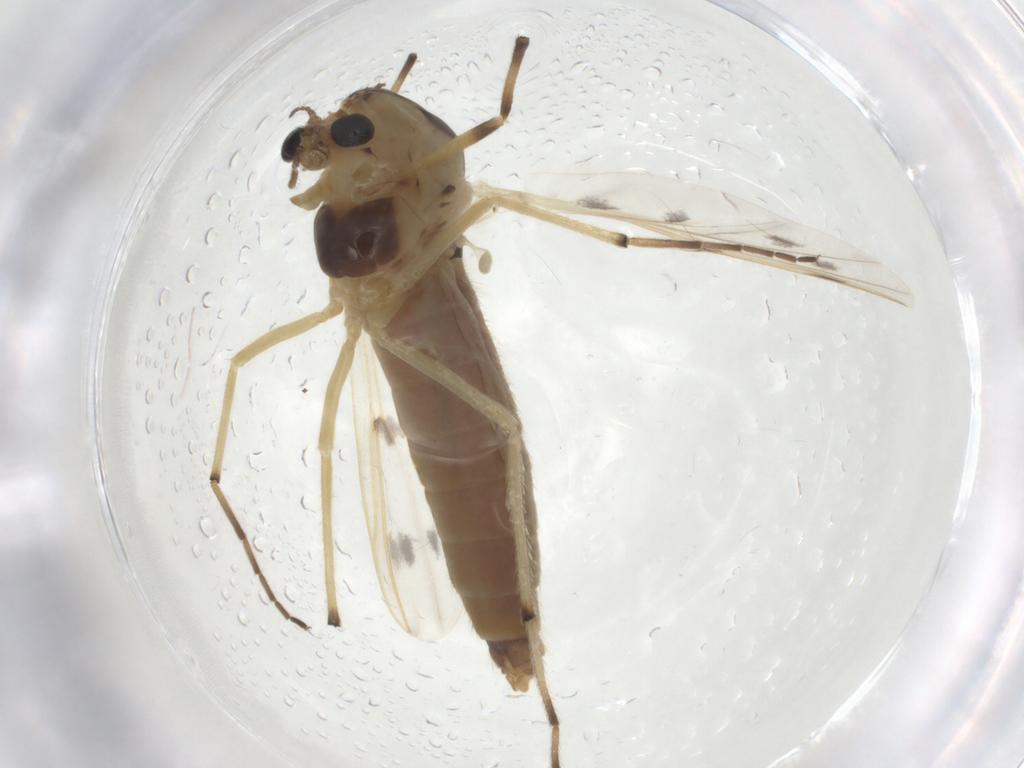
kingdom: Animalia
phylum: Arthropoda
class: Insecta
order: Diptera
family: Chironomidae
